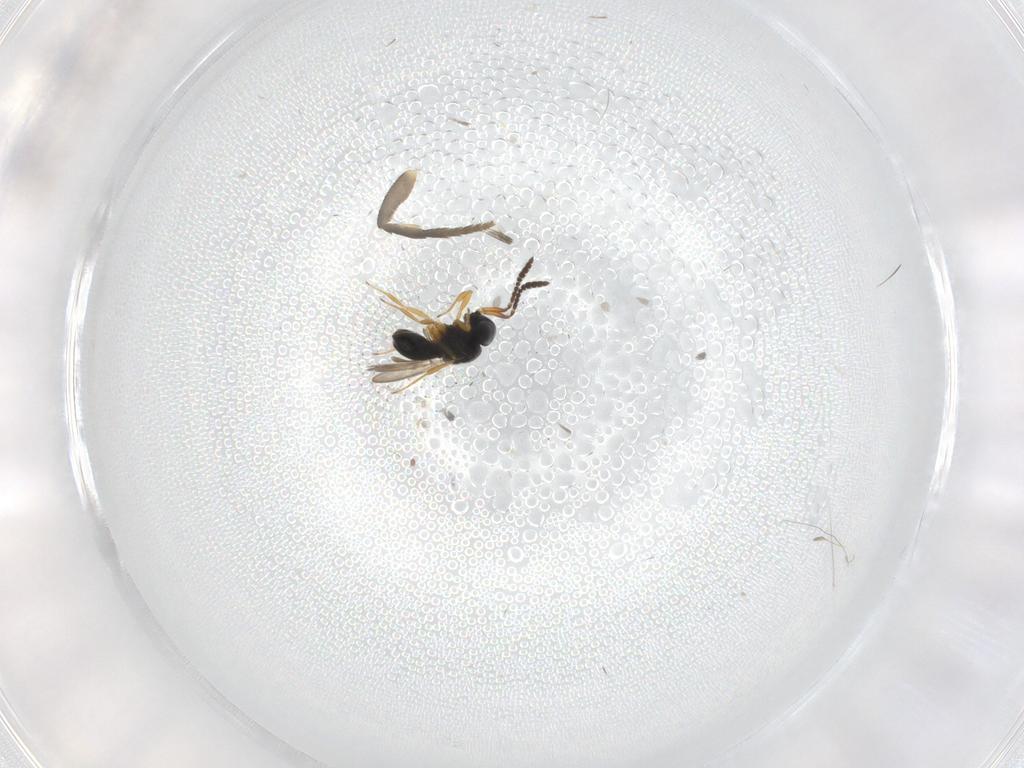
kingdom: Animalia
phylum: Arthropoda
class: Insecta
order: Hymenoptera
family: Scelionidae
